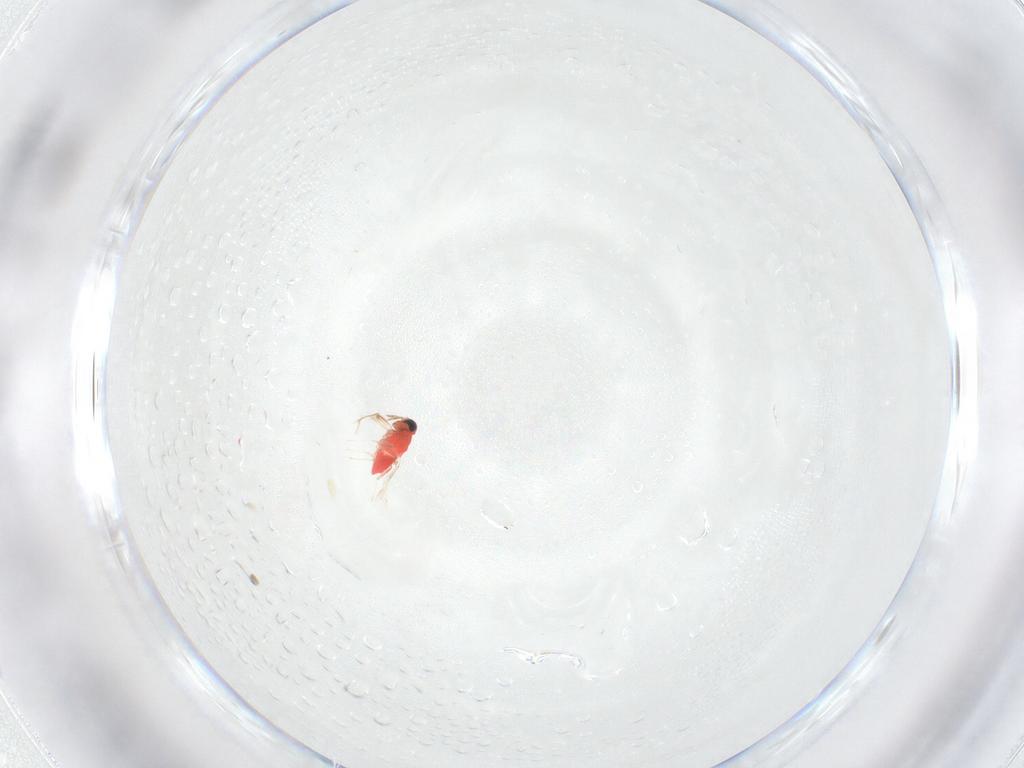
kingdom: Animalia
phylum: Arthropoda
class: Insecta
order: Hymenoptera
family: Trichogrammatidae
